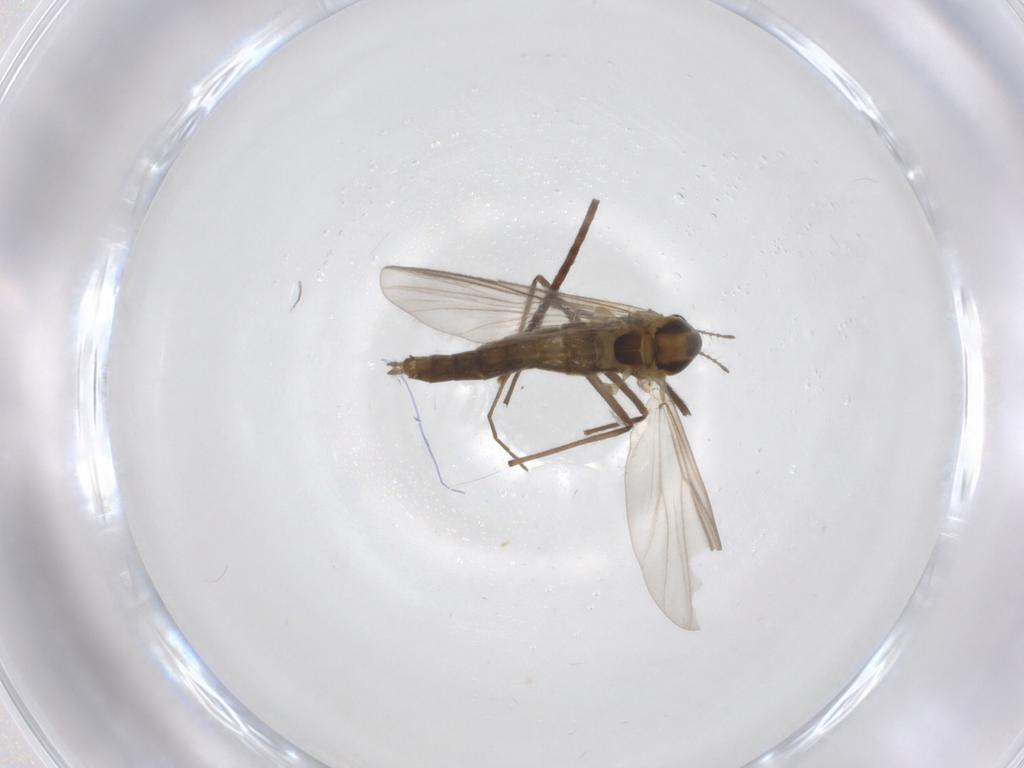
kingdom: Animalia
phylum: Arthropoda
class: Insecta
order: Diptera
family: Chironomidae
